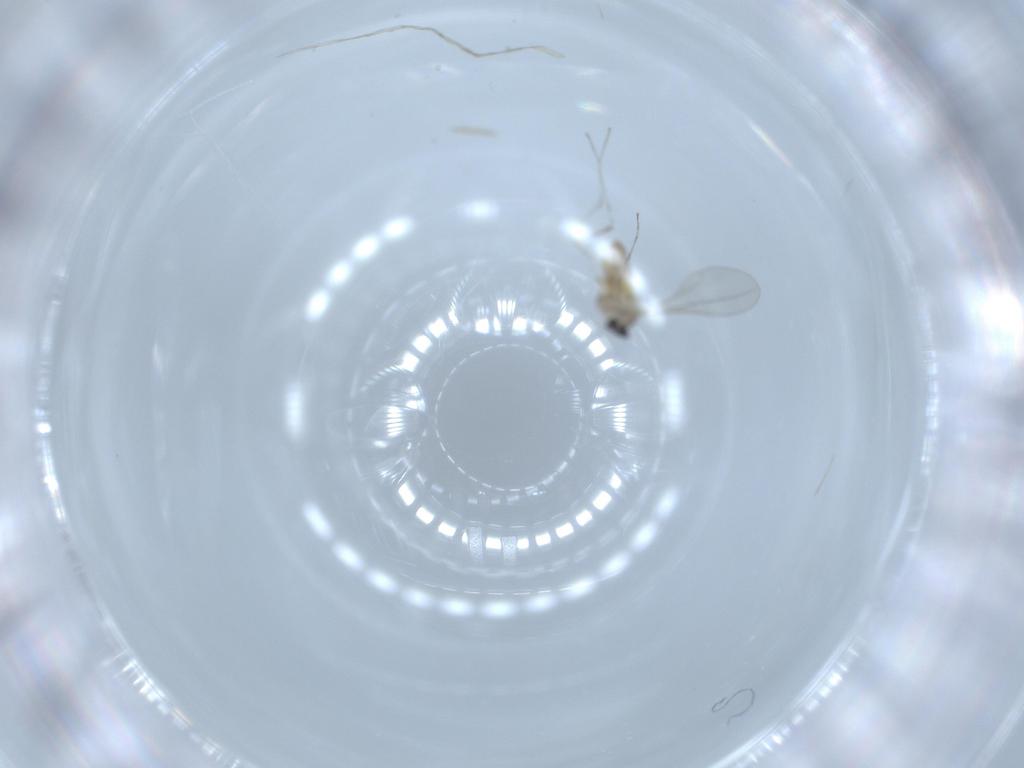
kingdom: Animalia
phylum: Arthropoda
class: Insecta
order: Diptera
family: Cecidomyiidae
